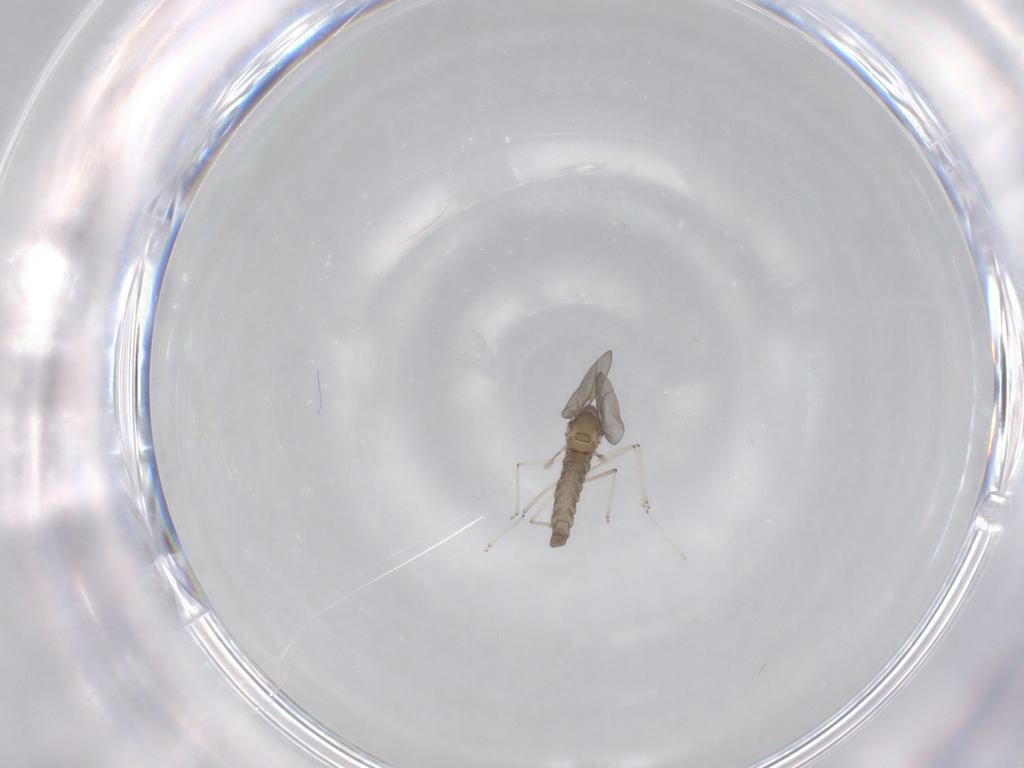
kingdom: Animalia
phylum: Arthropoda
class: Insecta
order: Diptera
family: Cecidomyiidae
